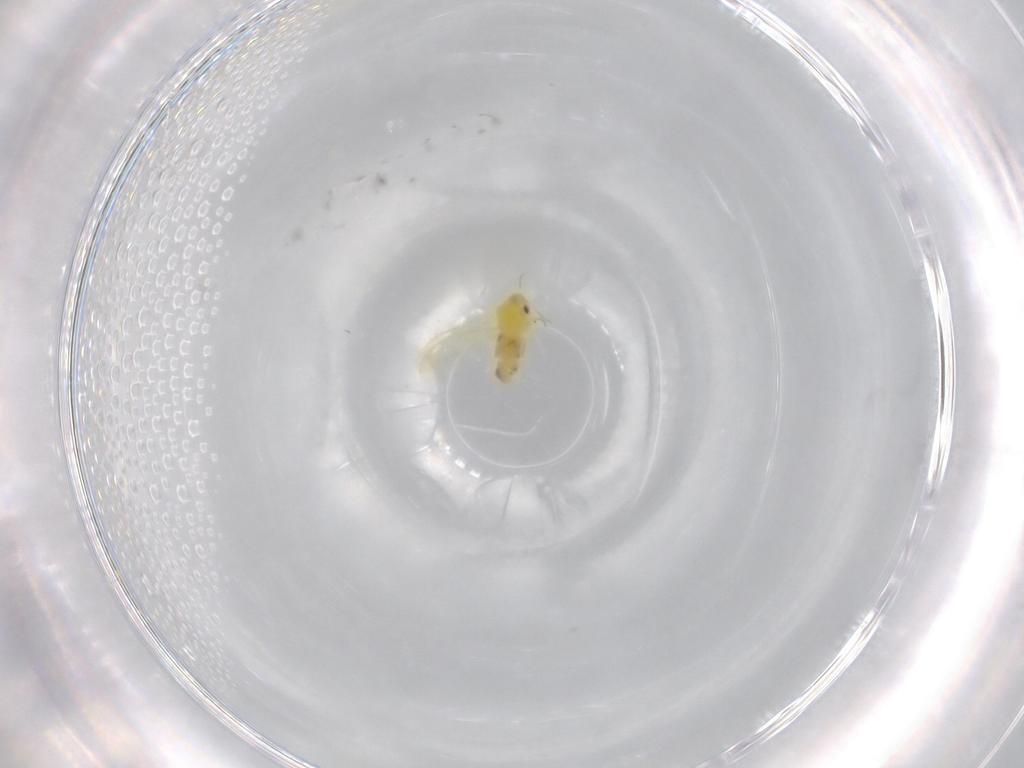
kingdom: Animalia
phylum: Arthropoda
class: Insecta
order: Hemiptera
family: Aleyrodidae
